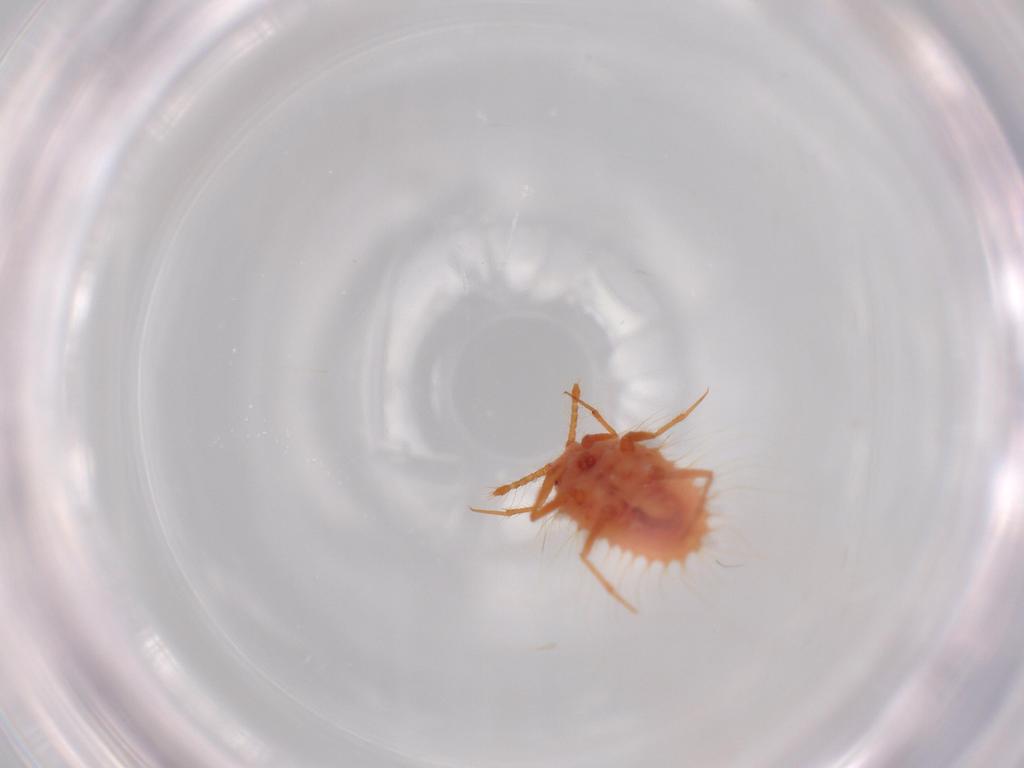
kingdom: Animalia
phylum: Arthropoda
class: Insecta
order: Hemiptera
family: Coccoidea_incertae_sedis
